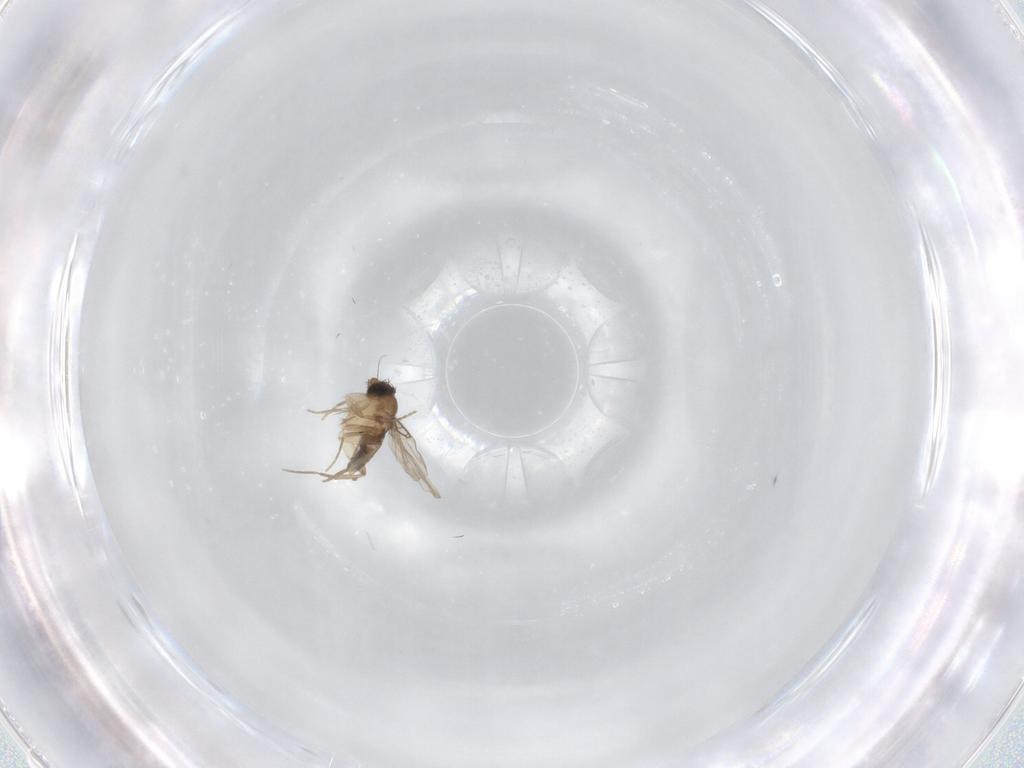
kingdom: Animalia
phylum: Arthropoda
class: Insecta
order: Diptera
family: Phoridae
